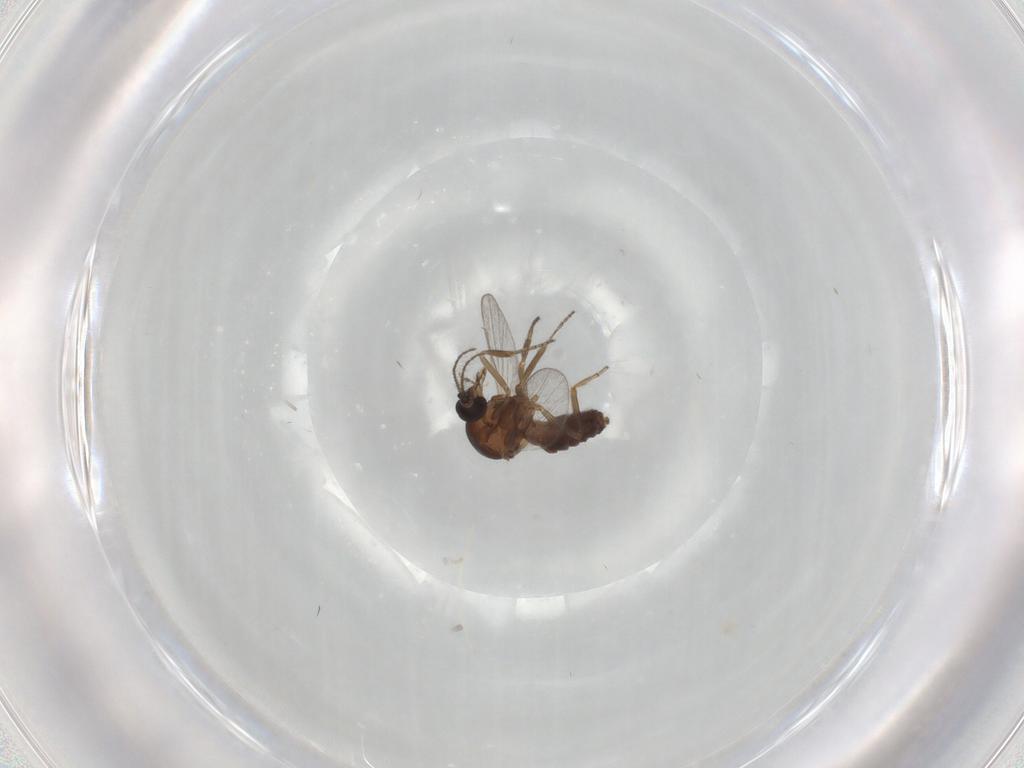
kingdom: Animalia
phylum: Arthropoda
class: Insecta
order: Diptera
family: Ceratopogonidae
